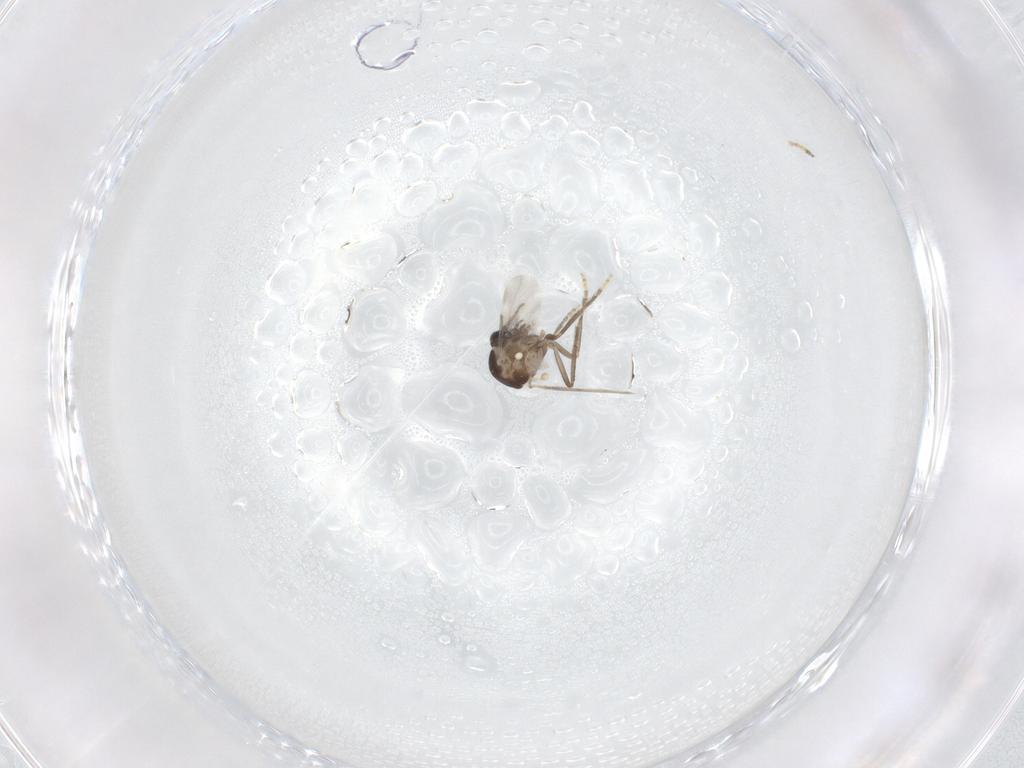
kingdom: Animalia
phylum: Arthropoda
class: Insecta
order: Diptera
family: Ceratopogonidae
